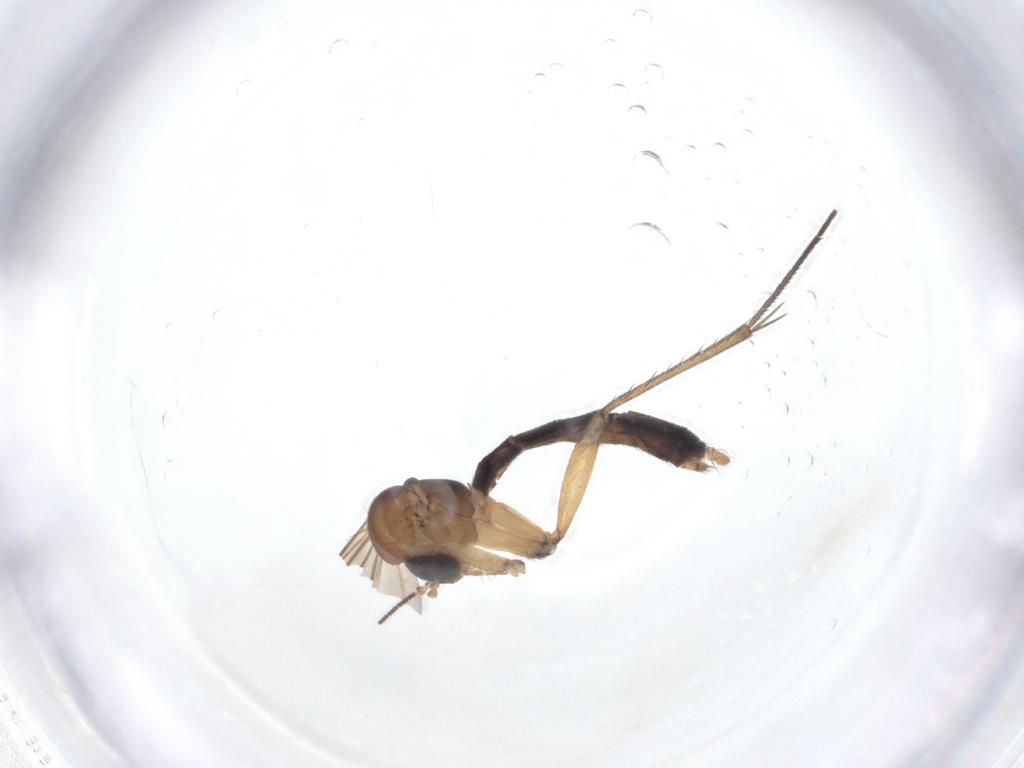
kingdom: Animalia
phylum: Arthropoda
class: Insecta
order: Diptera
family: Mycetophilidae
